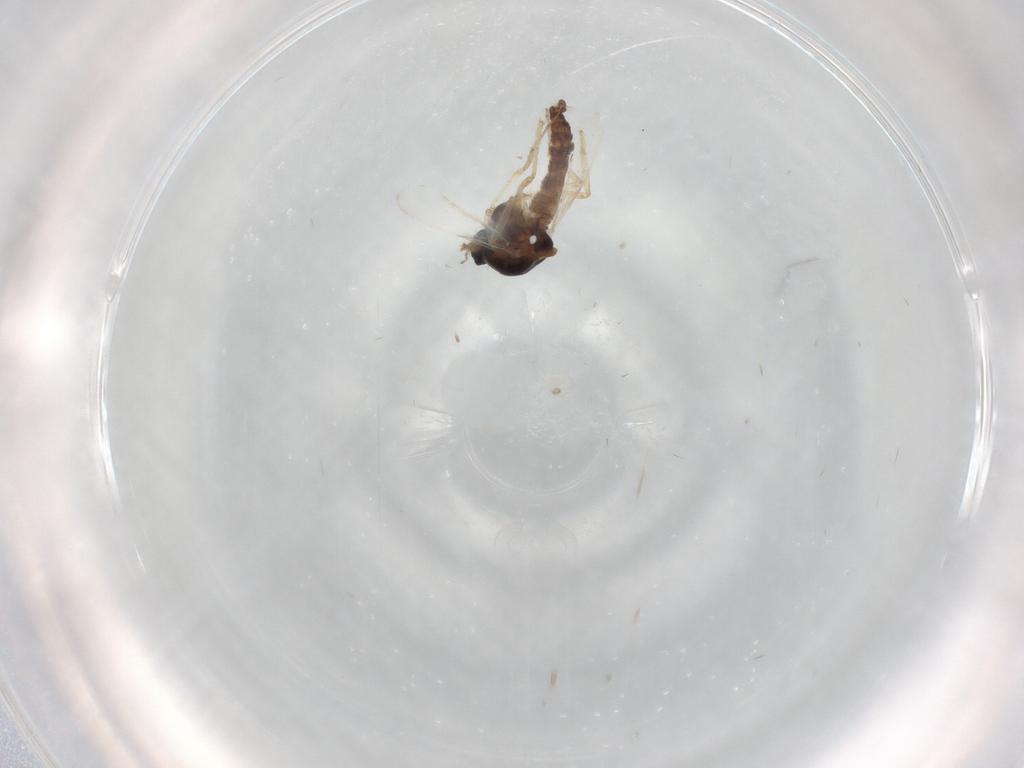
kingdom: Animalia
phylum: Arthropoda
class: Insecta
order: Diptera
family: Ceratopogonidae
